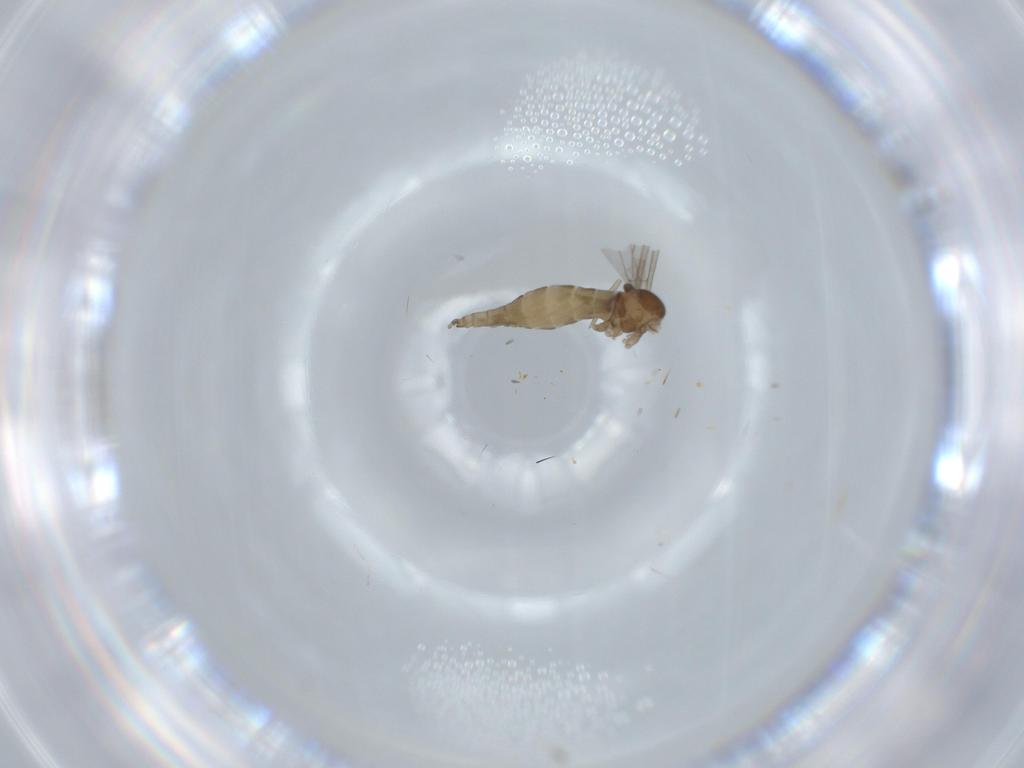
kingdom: Animalia
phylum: Arthropoda
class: Insecta
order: Diptera
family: Cecidomyiidae
